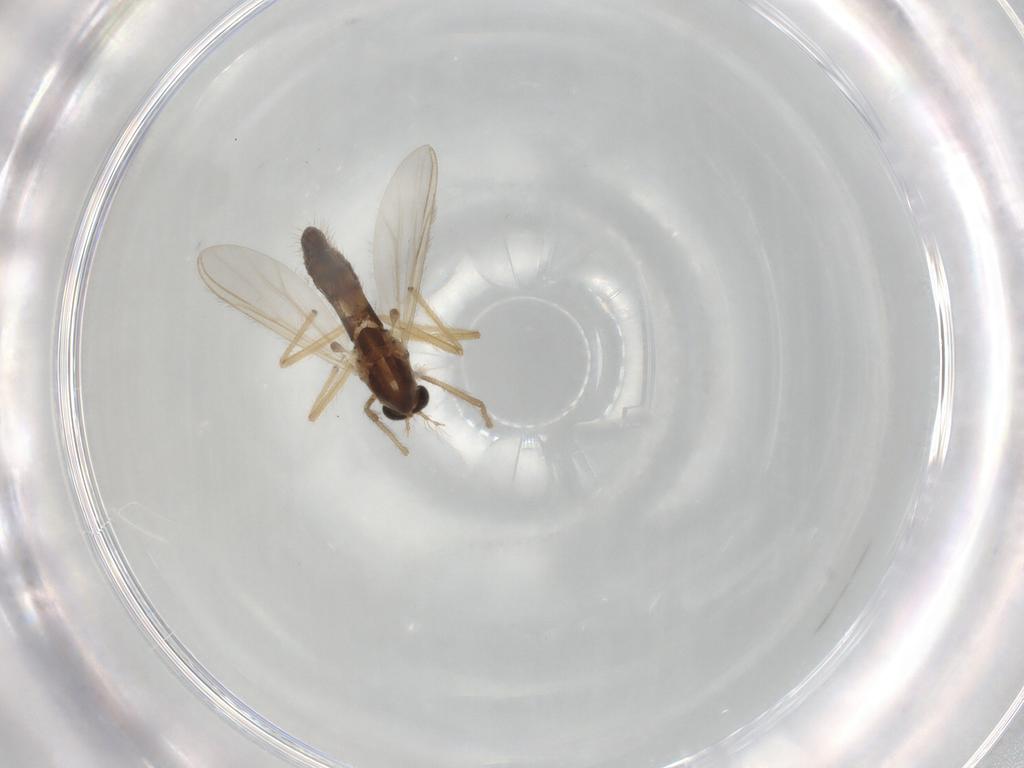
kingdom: Animalia
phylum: Arthropoda
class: Insecta
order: Diptera
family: Chironomidae
